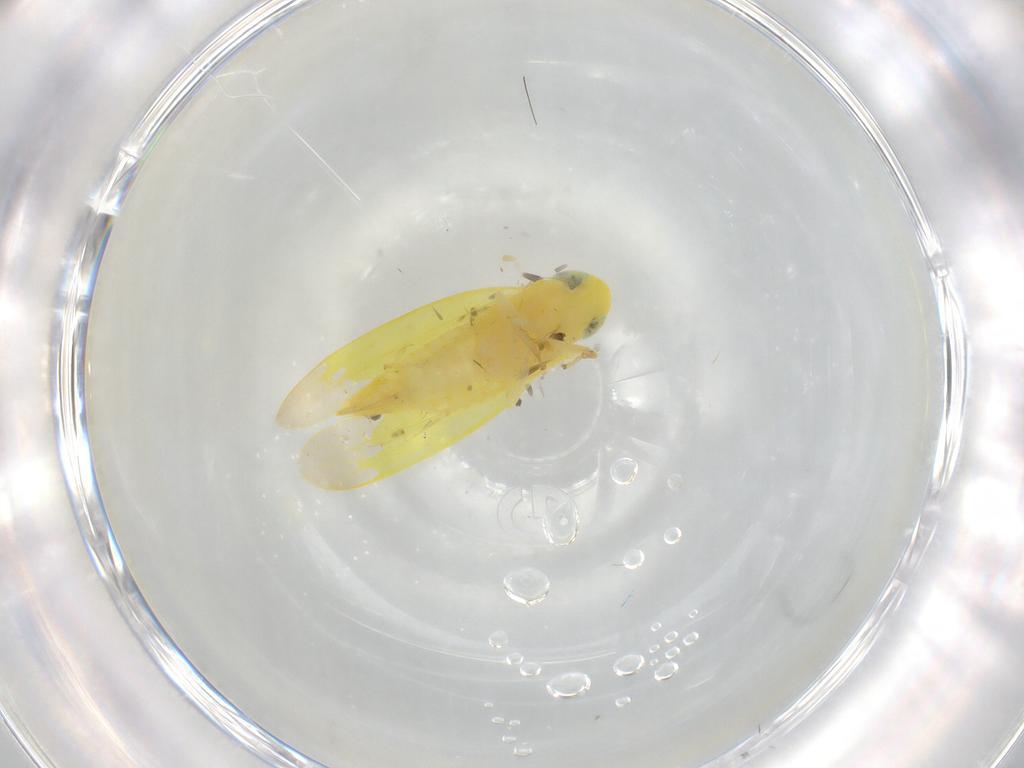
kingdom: Animalia
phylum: Arthropoda
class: Insecta
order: Hemiptera
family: Cicadellidae
